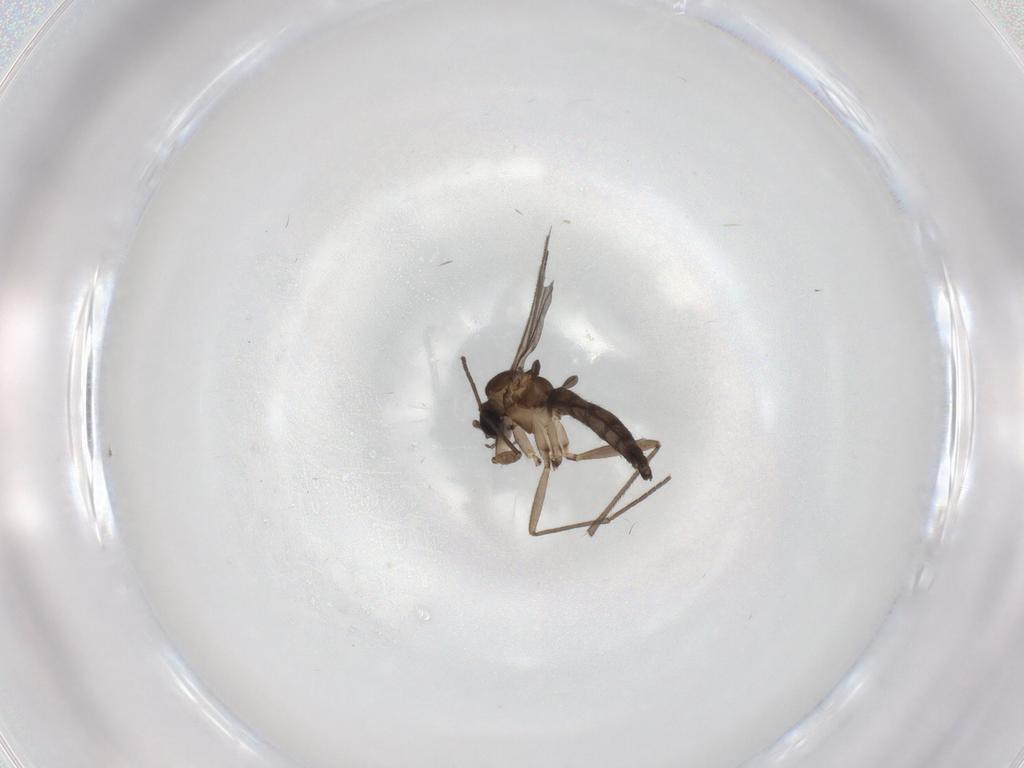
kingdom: Animalia
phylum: Arthropoda
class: Insecta
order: Diptera
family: Sciaridae
